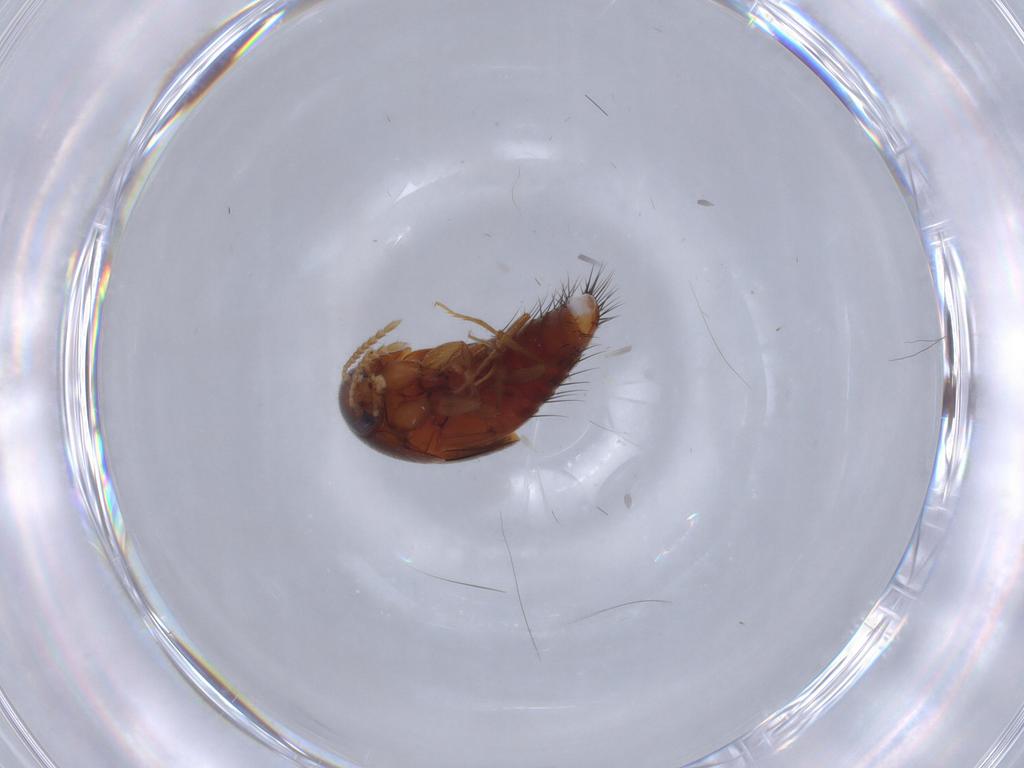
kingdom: Animalia
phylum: Arthropoda
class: Insecta
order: Coleoptera
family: Staphylinidae
